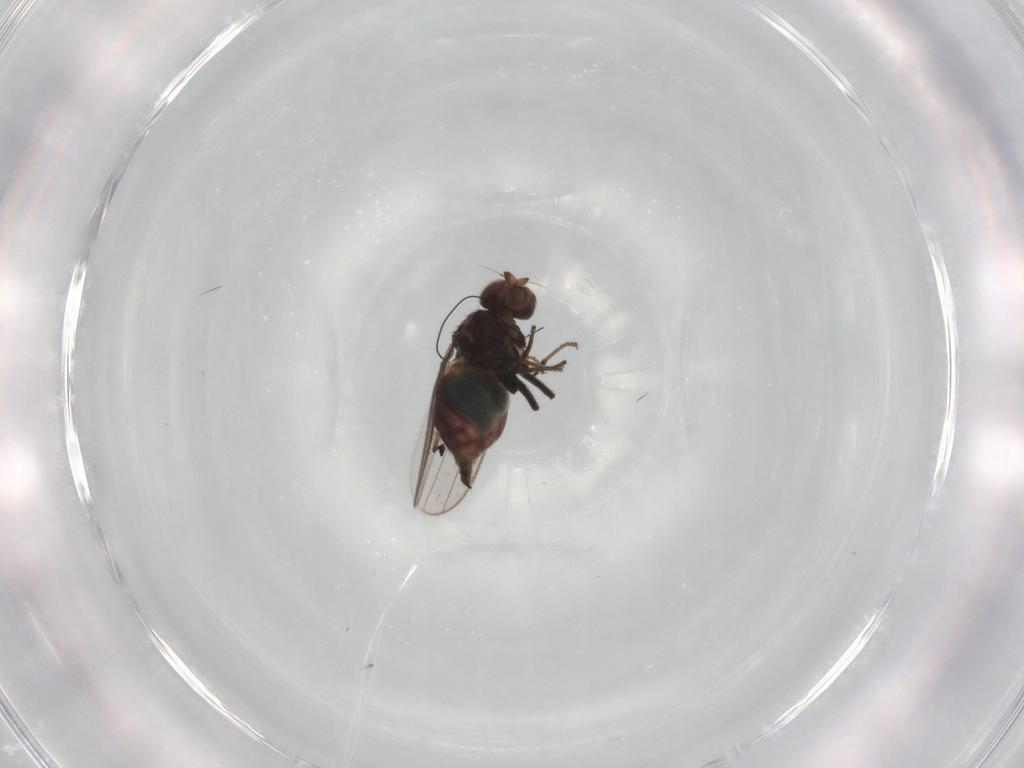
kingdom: Animalia
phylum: Arthropoda
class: Insecta
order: Diptera
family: Chloropidae
